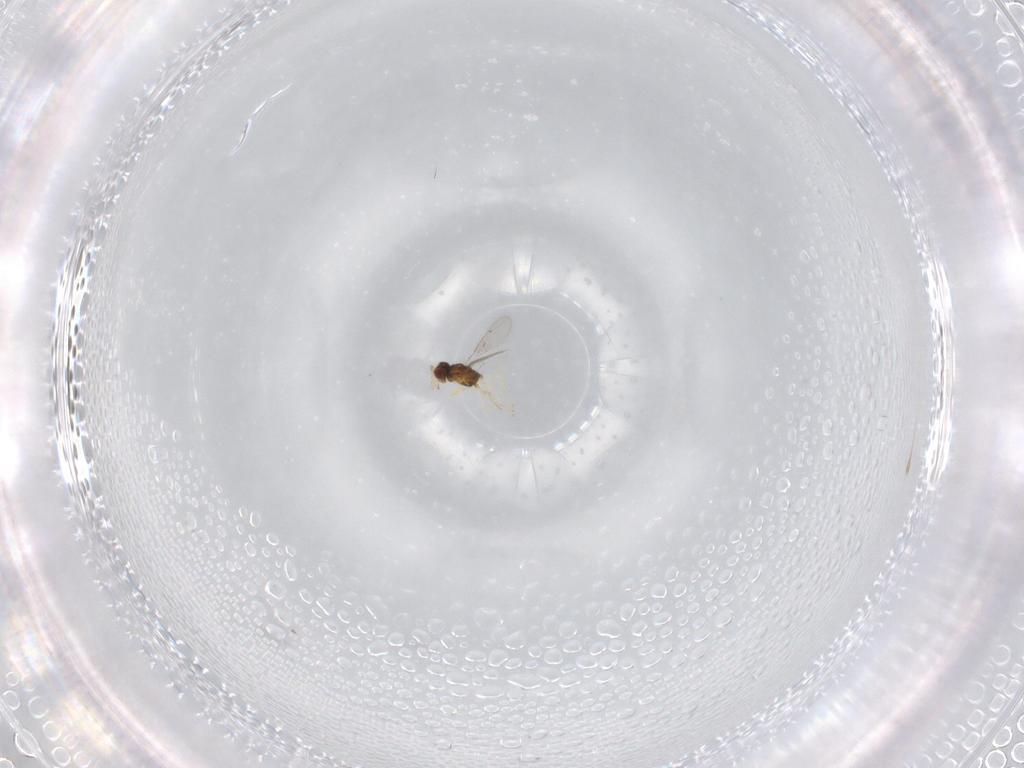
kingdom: Animalia
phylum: Arthropoda
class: Insecta
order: Hymenoptera
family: Eulophidae
